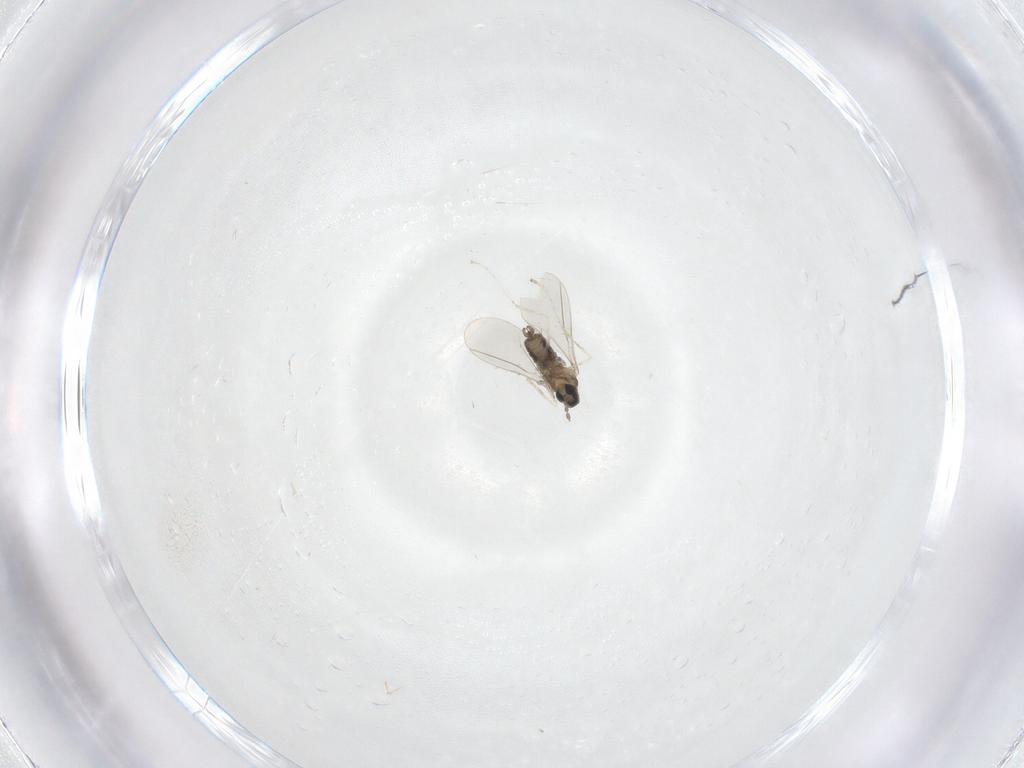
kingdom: Animalia
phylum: Arthropoda
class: Insecta
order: Diptera
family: Cecidomyiidae
